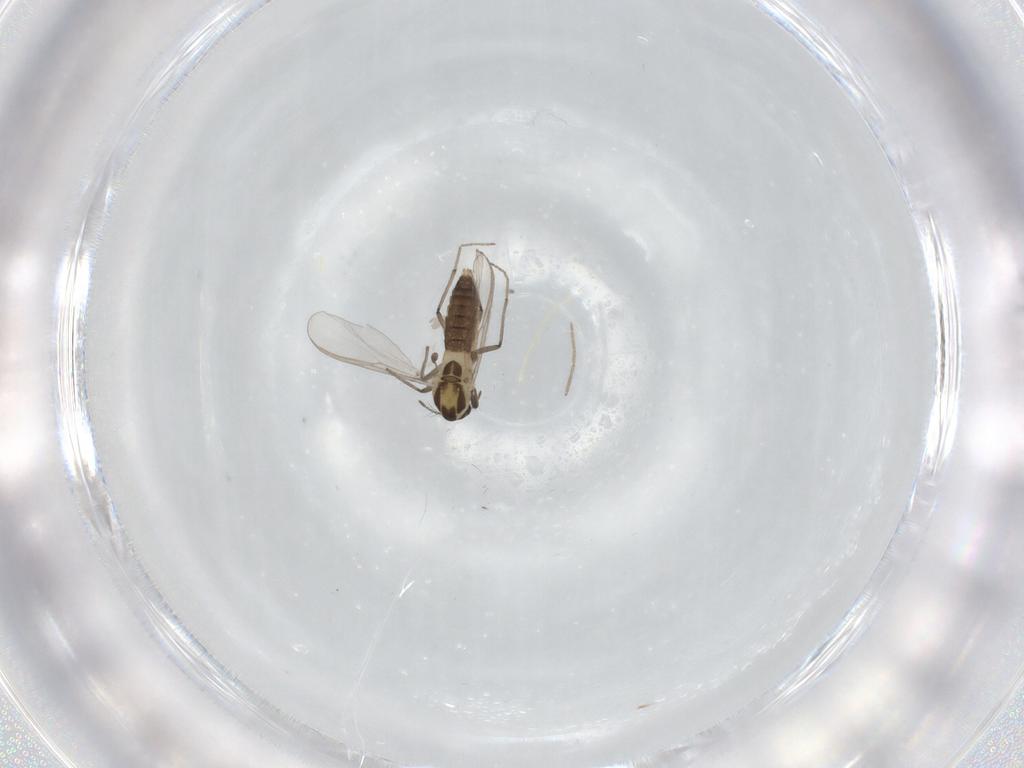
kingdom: Animalia
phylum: Arthropoda
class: Insecta
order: Diptera
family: Chironomidae
